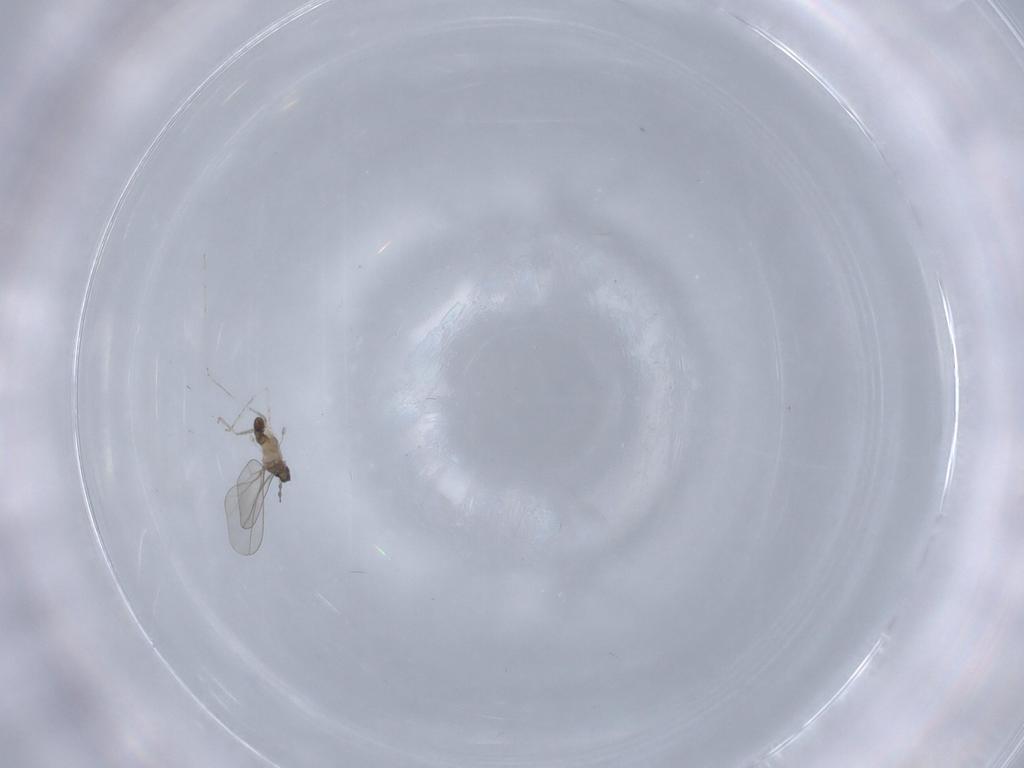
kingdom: Animalia
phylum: Arthropoda
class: Insecta
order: Diptera
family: Cecidomyiidae
